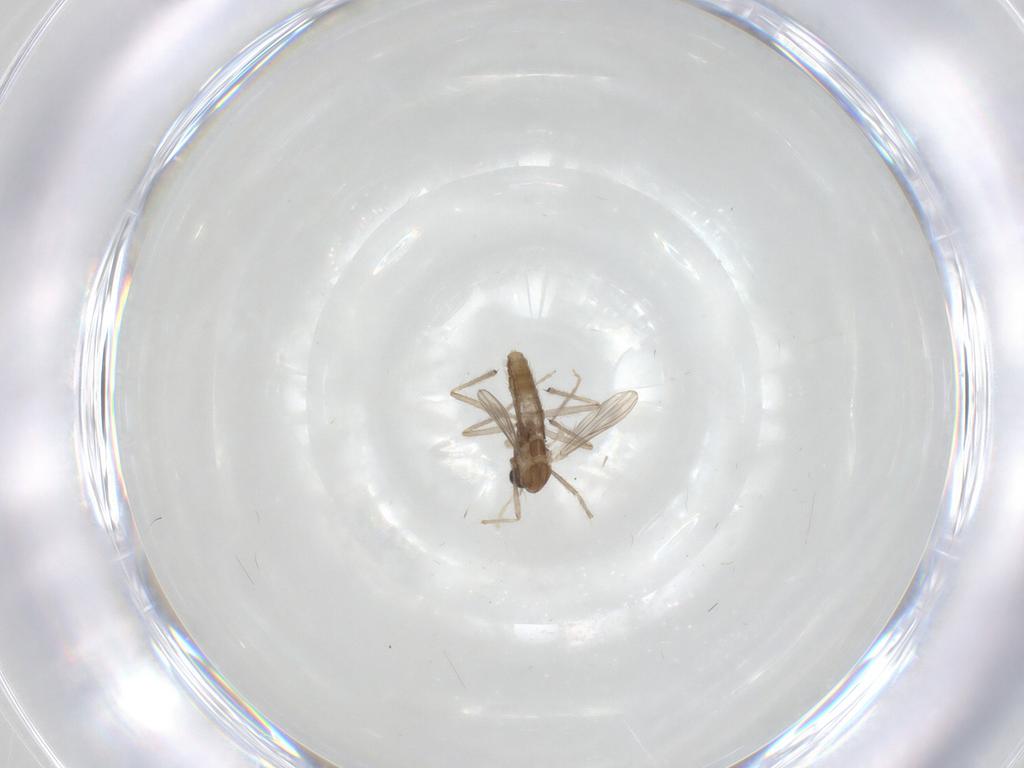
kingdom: Animalia
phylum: Arthropoda
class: Insecta
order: Diptera
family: Chironomidae
